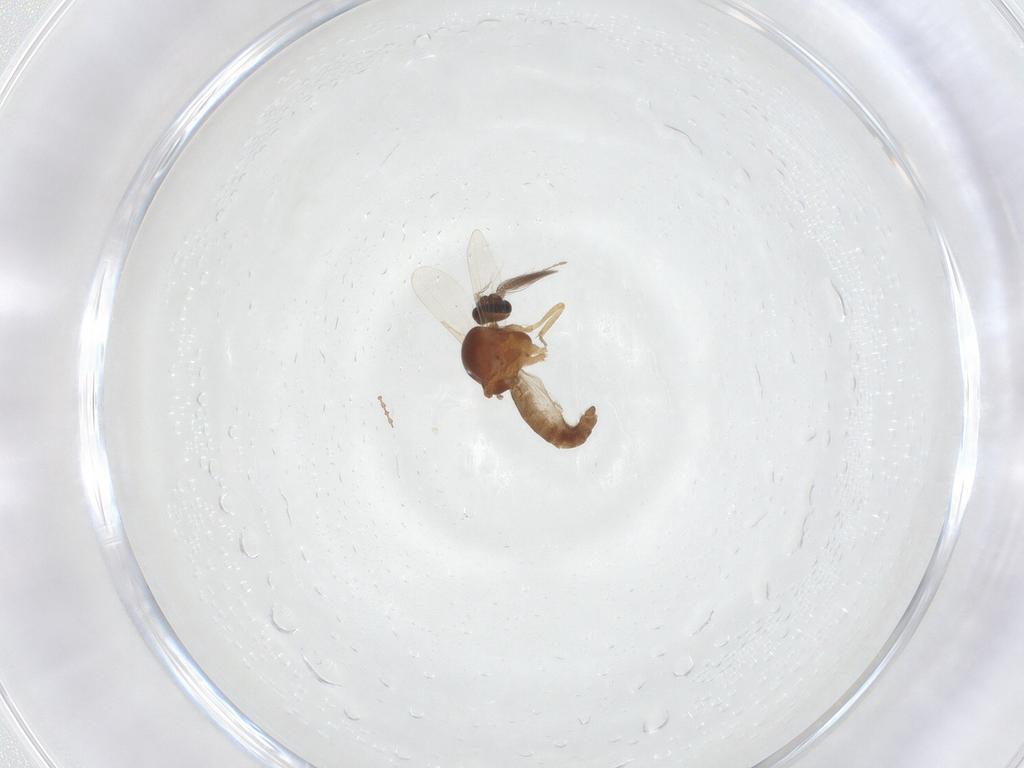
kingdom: Animalia
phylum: Arthropoda
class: Insecta
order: Diptera
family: Ceratopogonidae
